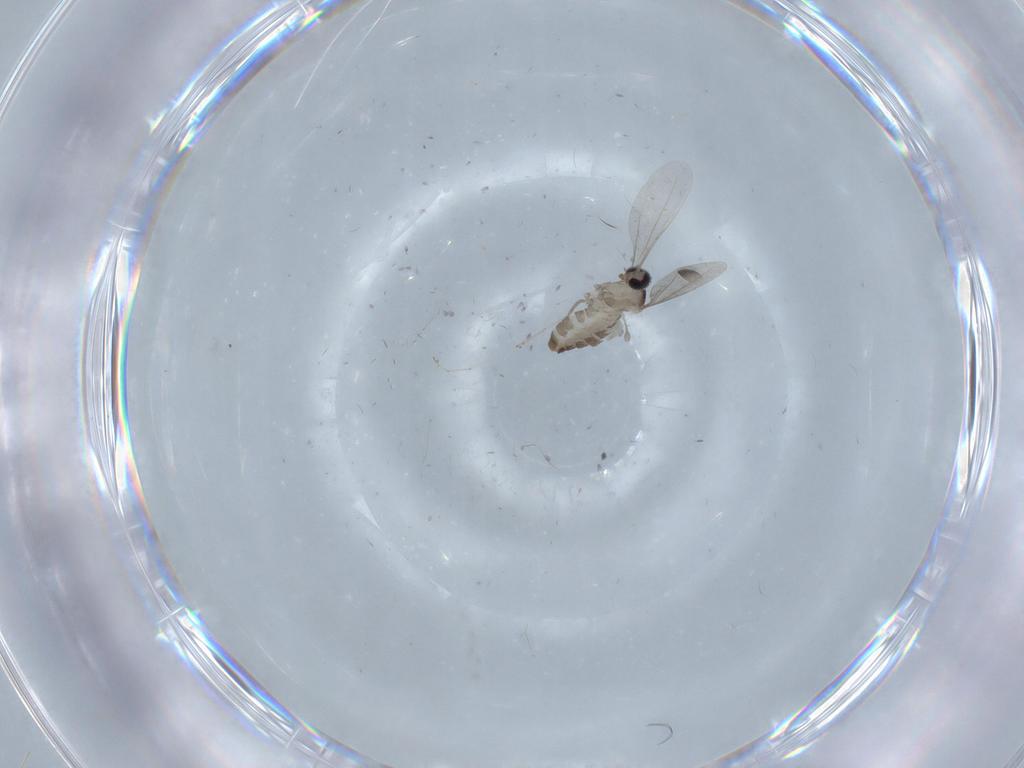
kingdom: Animalia
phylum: Arthropoda
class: Insecta
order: Diptera
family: Cecidomyiidae
